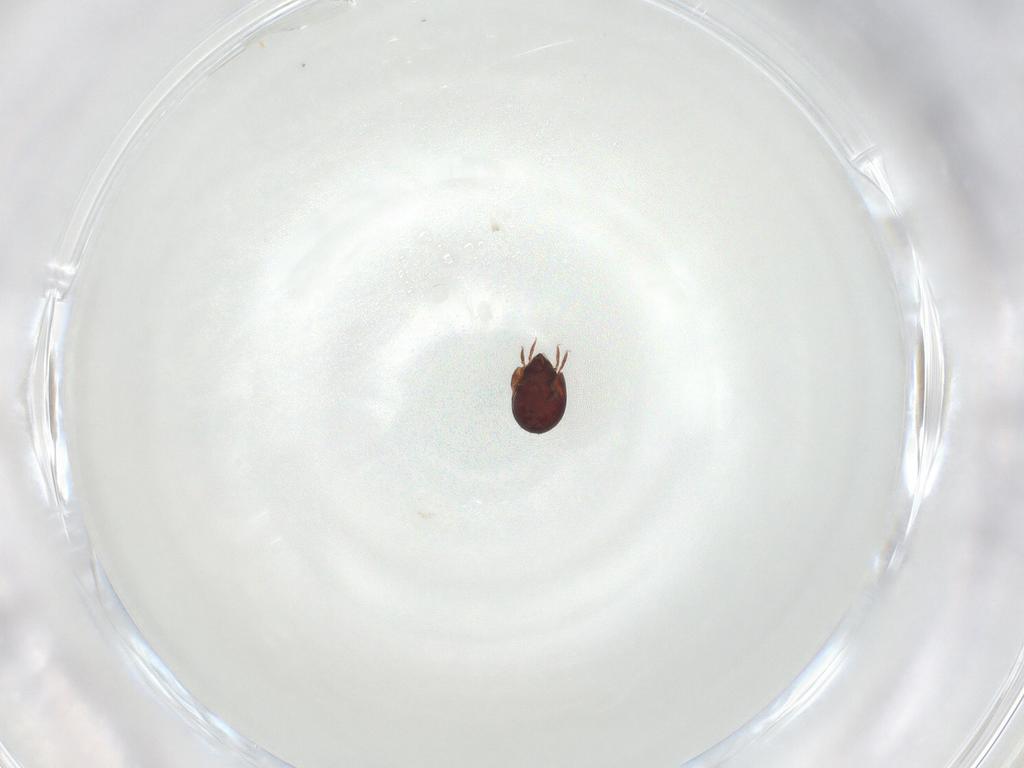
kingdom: Animalia
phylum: Arthropoda
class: Arachnida
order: Sarcoptiformes
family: Humerobatidae
